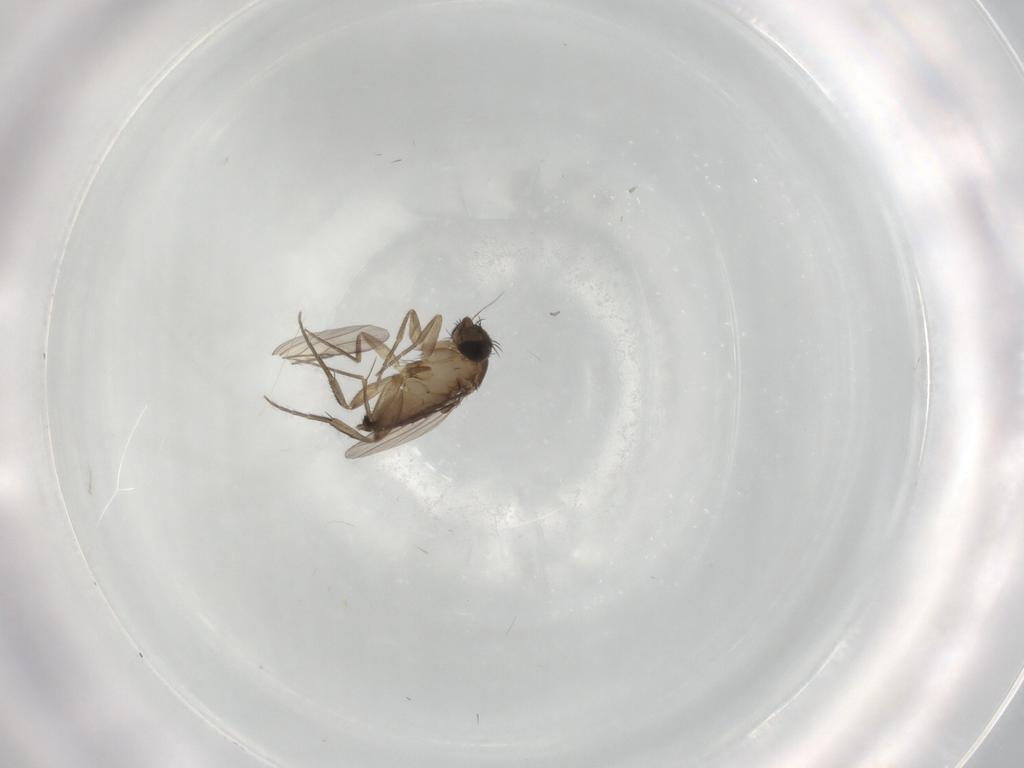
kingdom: Animalia
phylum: Arthropoda
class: Insecta
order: Diptera
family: Phoridae
